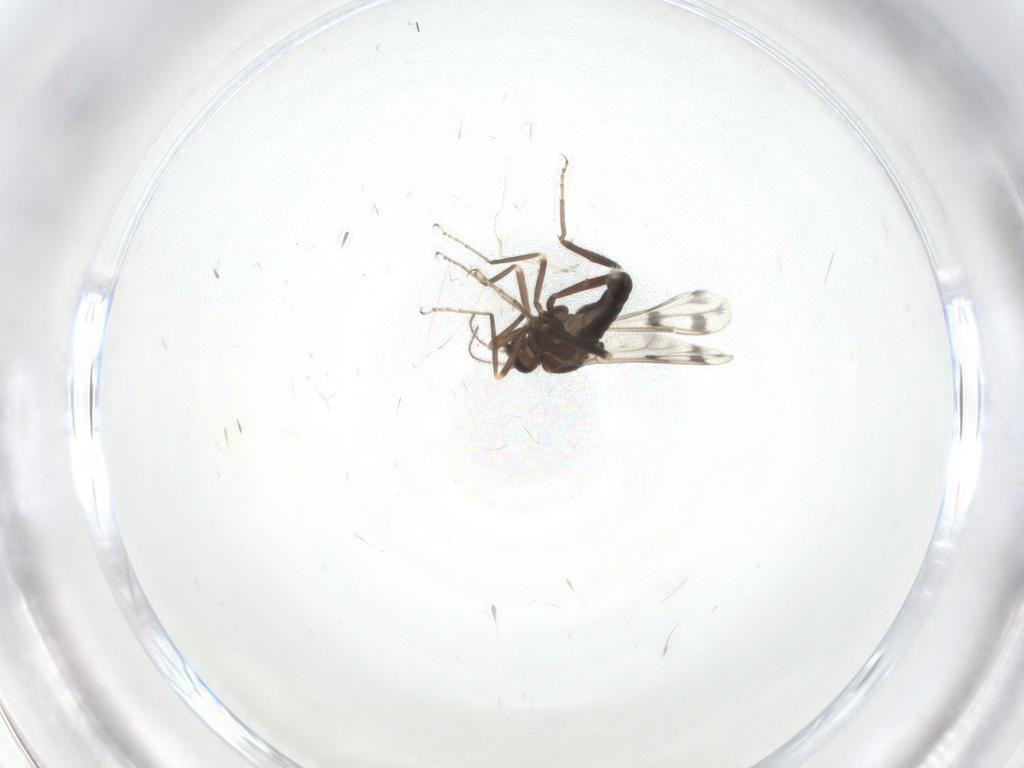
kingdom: Animalia
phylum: Arthropoda
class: Insecta
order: Diptera
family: Ceratopogonidae
